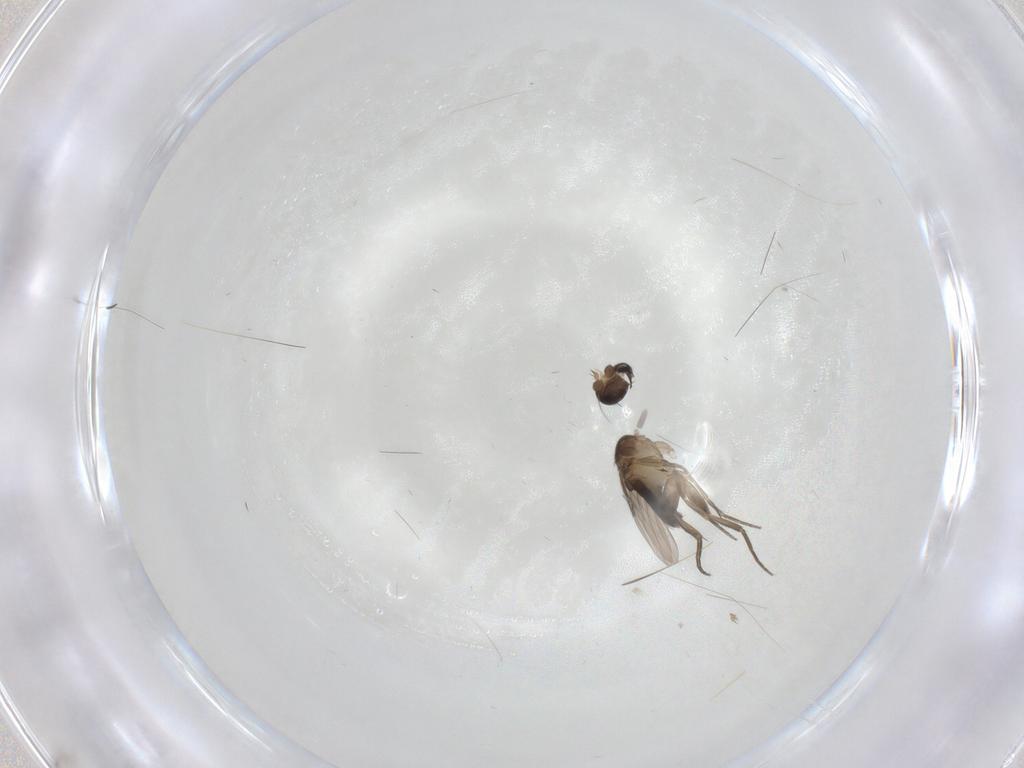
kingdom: Animalia
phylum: Arthropoda
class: Insecta
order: Diptera
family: Phoridae
